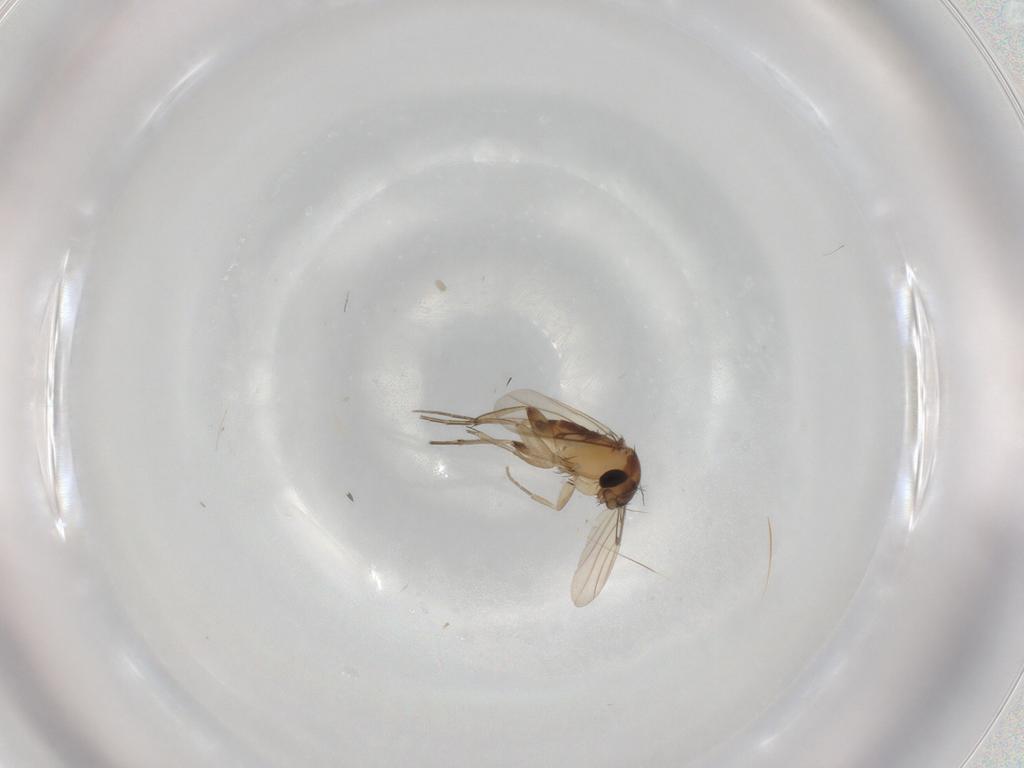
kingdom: Animalia
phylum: Arthropoda
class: Insecta
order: Diptera
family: Phoridae
